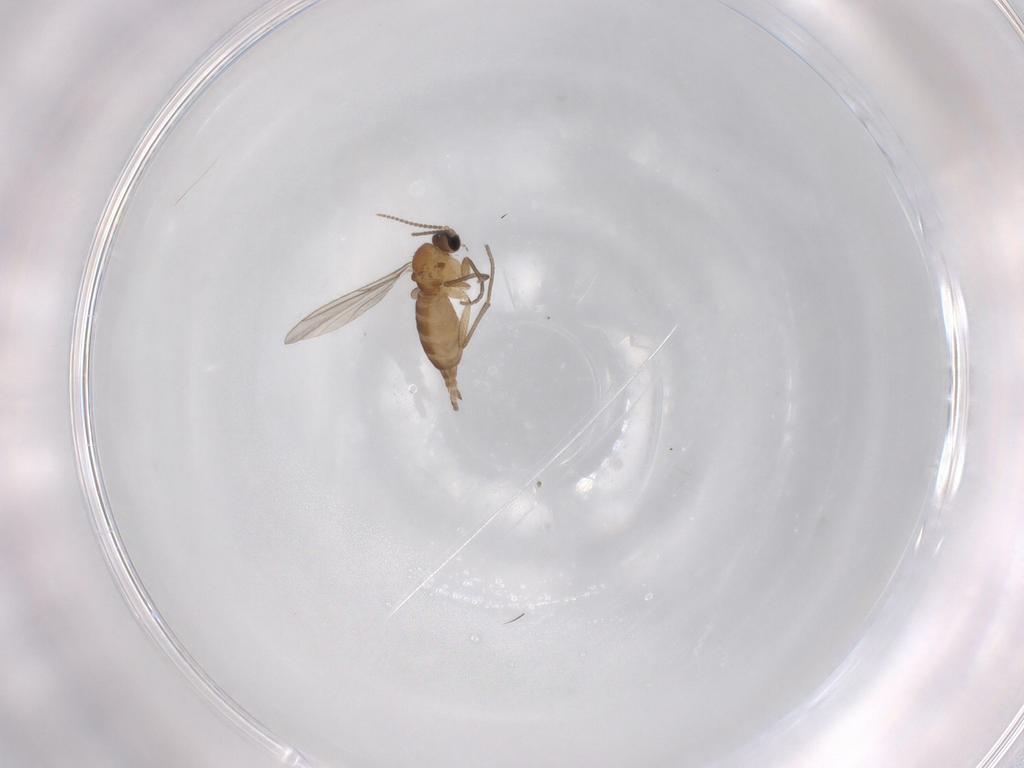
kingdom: Animalia
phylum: Arthropoda
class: Insecta
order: Diptera
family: Sciaridae
